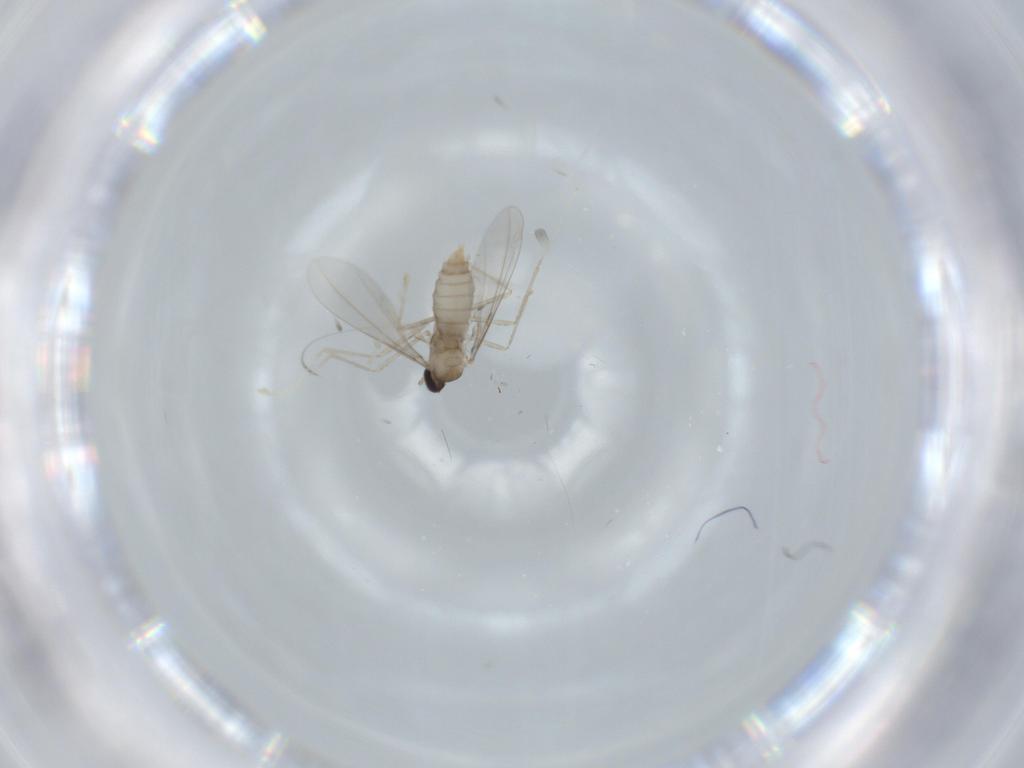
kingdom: Animalia
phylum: Arthropoda
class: Insecta
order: Diptera
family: Cecidomyiidae
